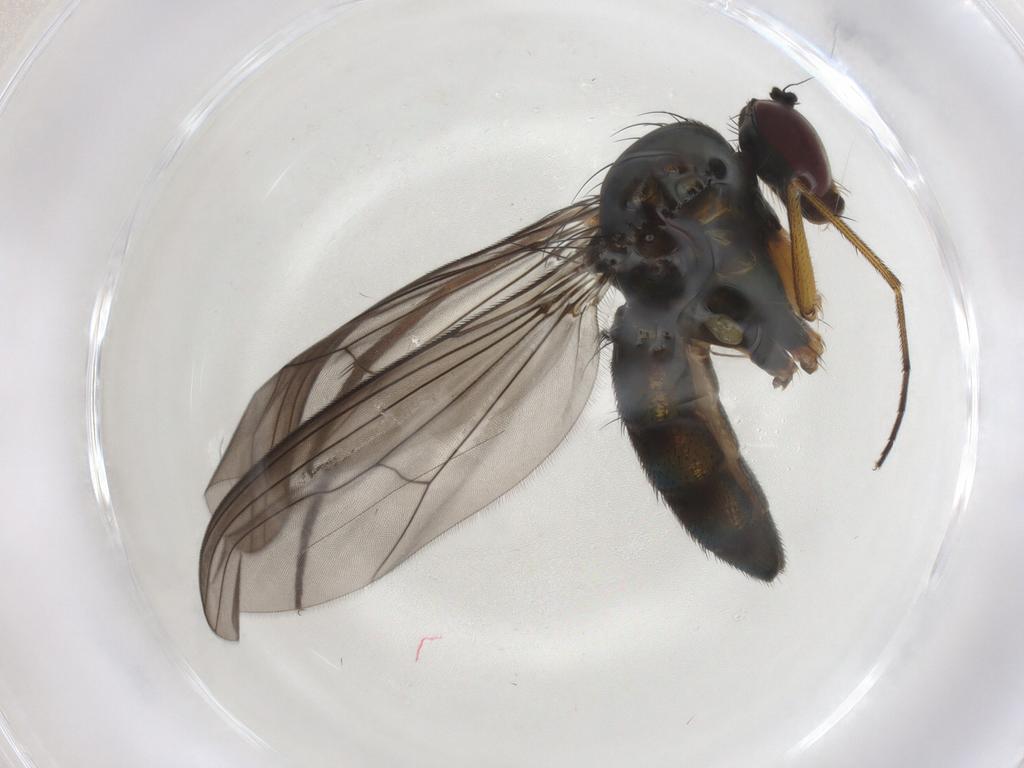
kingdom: Animalia
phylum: Arthropoda
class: Insecta
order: Diptera
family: Dolichopodidae
